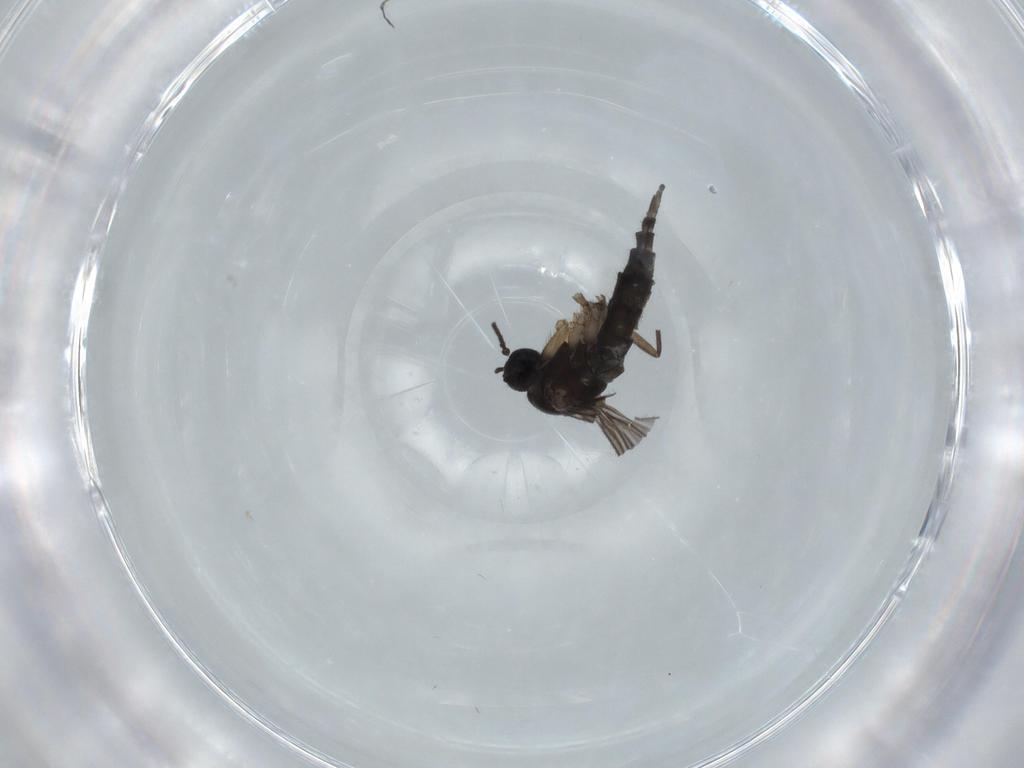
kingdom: Animalia
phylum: Arthropoda
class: Insecta
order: Diptera
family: Sciaridae
